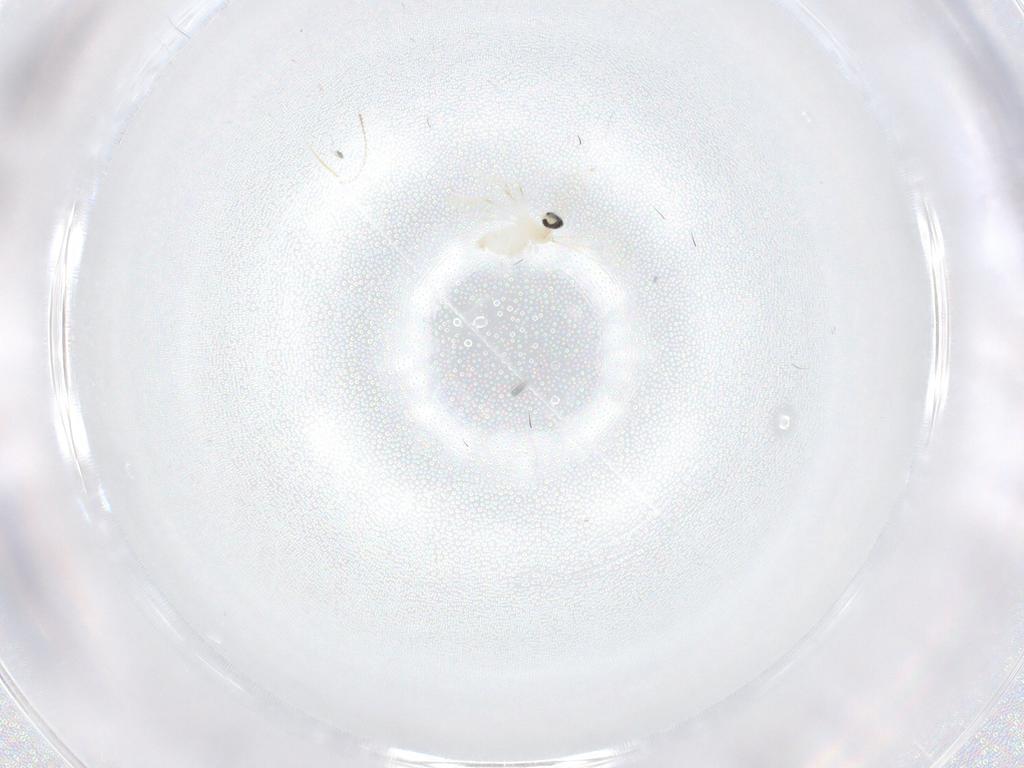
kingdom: Animalia
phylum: Arthropoda
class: Insecta
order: Diptera
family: Cecidomyiidae
